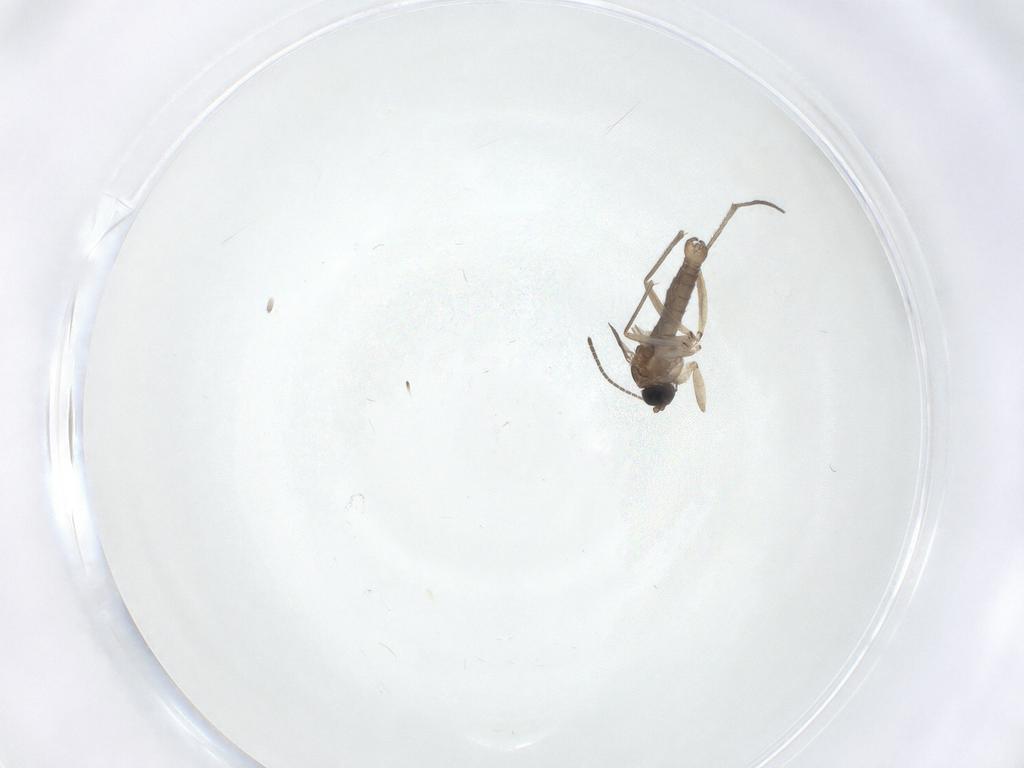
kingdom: Animalia
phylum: Arthropoda
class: Insecta
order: Diptera
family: Sciaridae
